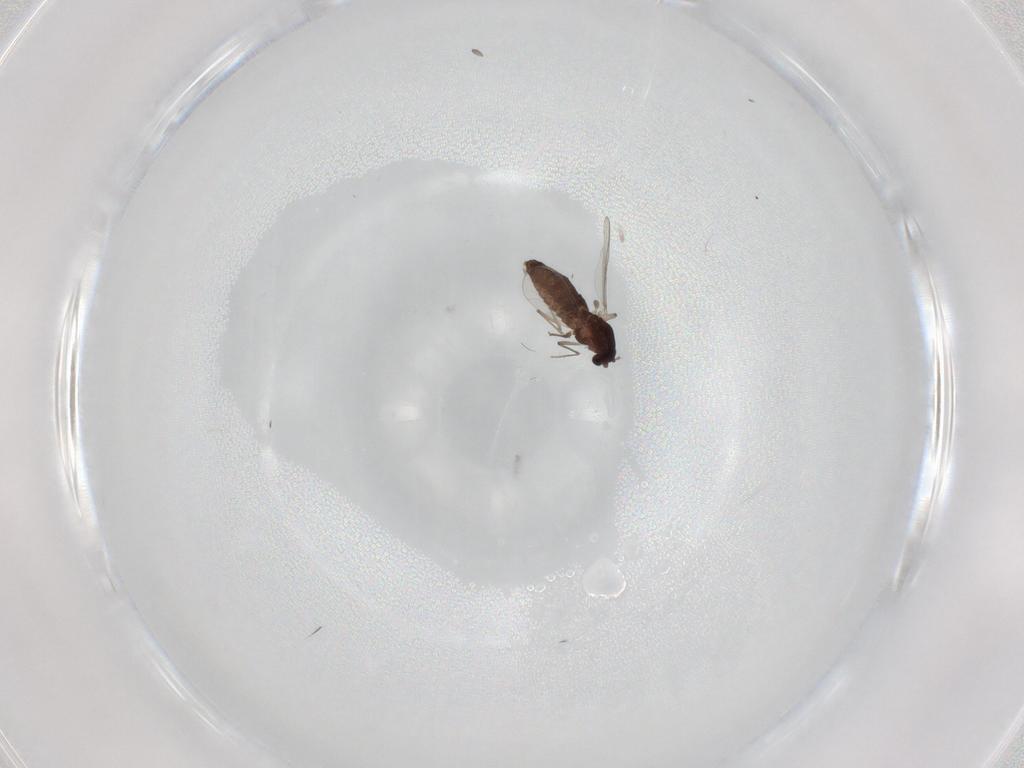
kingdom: Animalia
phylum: Arthropoda
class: Insecta
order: Diptera
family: Chironomidae
